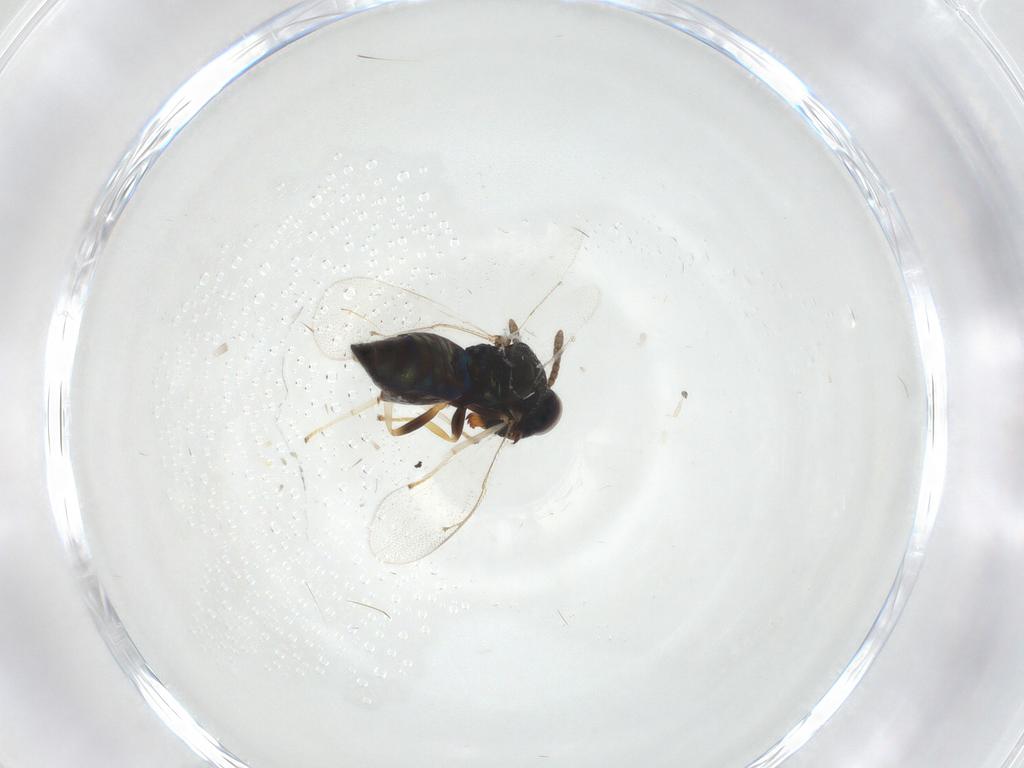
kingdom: Animalia
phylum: Arthropoda
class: Insecta
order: Hymenoptera
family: Pteromalidae
